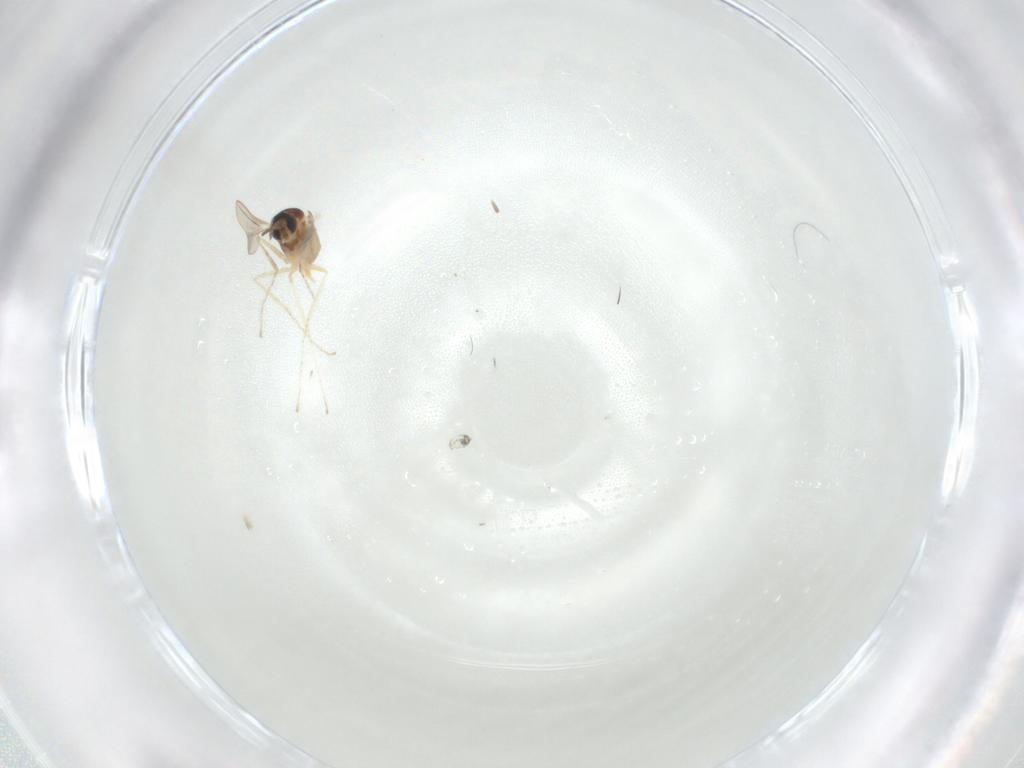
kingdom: Animalia
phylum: Arthropoda
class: Insecta
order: Diptera
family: Cecidomyiidae
